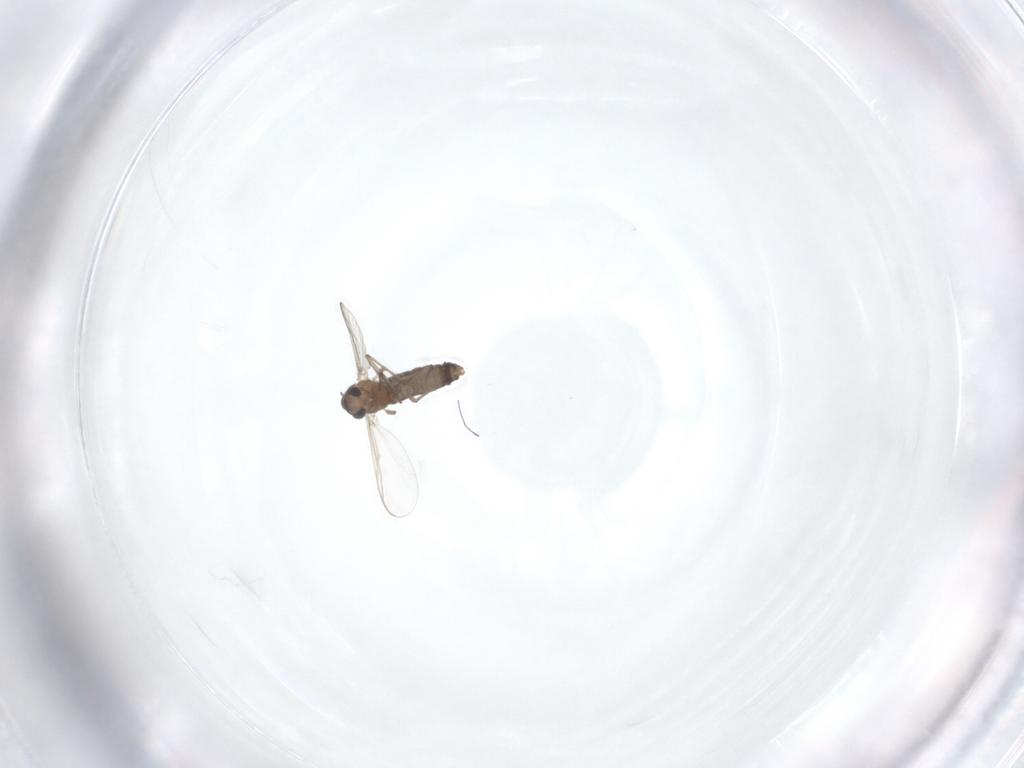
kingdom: Animalia
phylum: Arthropoda
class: Insecta
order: Diptera
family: Chironomidae
